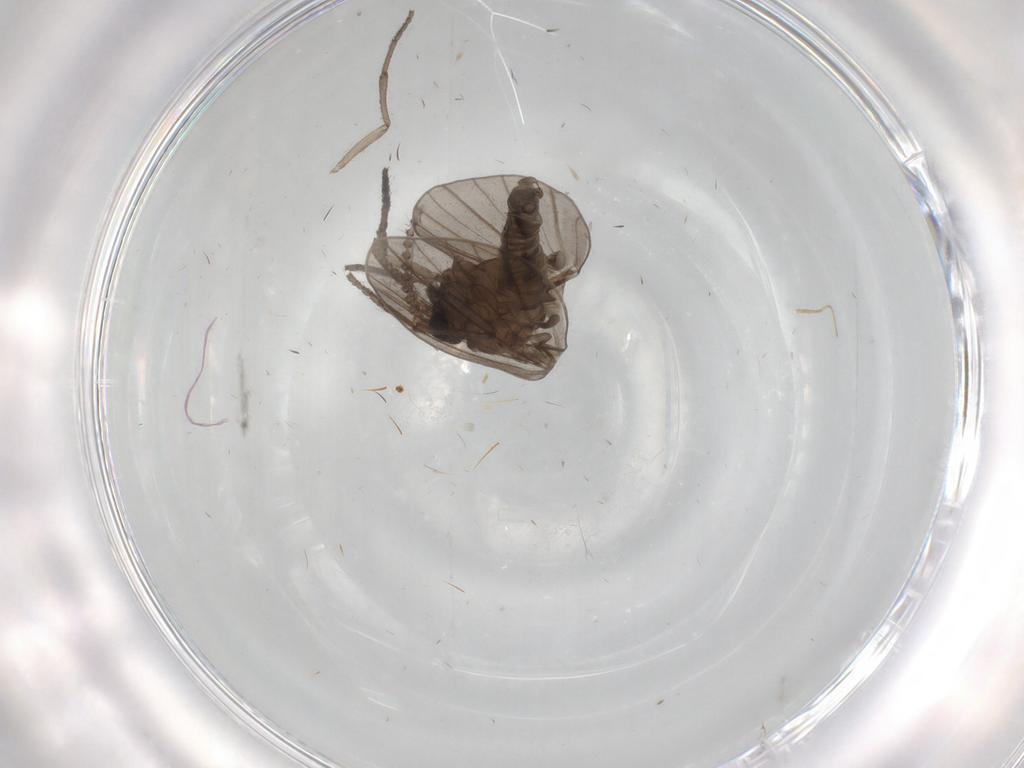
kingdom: Animalia
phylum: Arthropoda
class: Insecta
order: Diptera
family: Psychodidae
